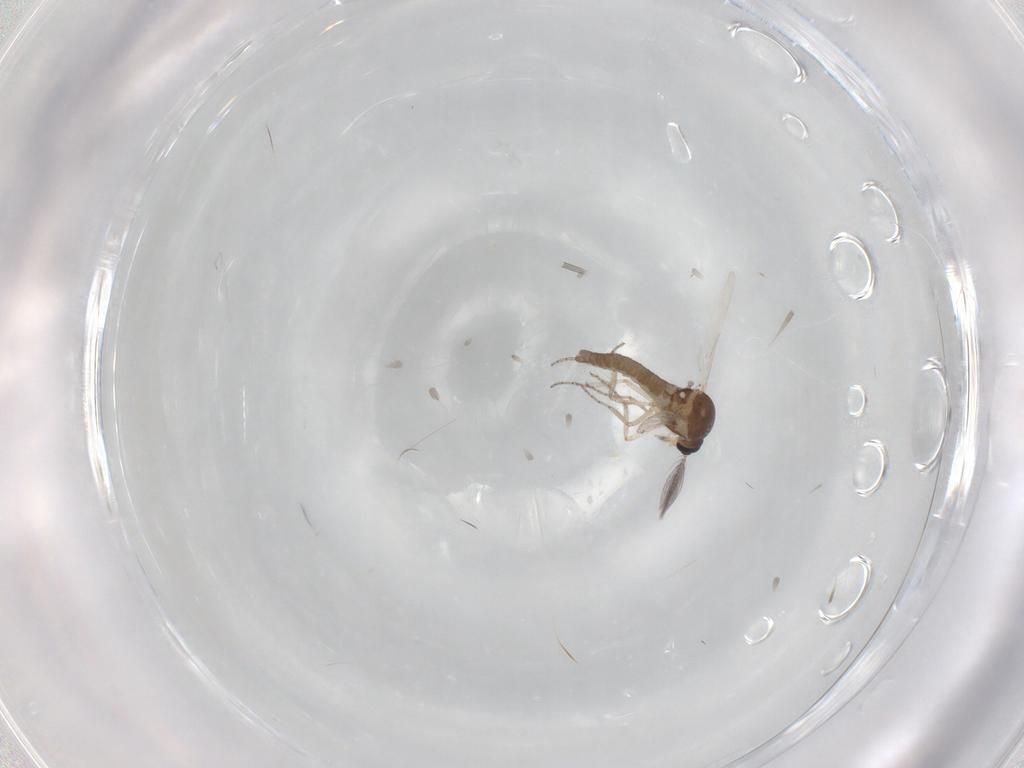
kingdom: Animalia
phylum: Arthropoda
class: Insecta
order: Diptera
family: Ceratopogonidae
